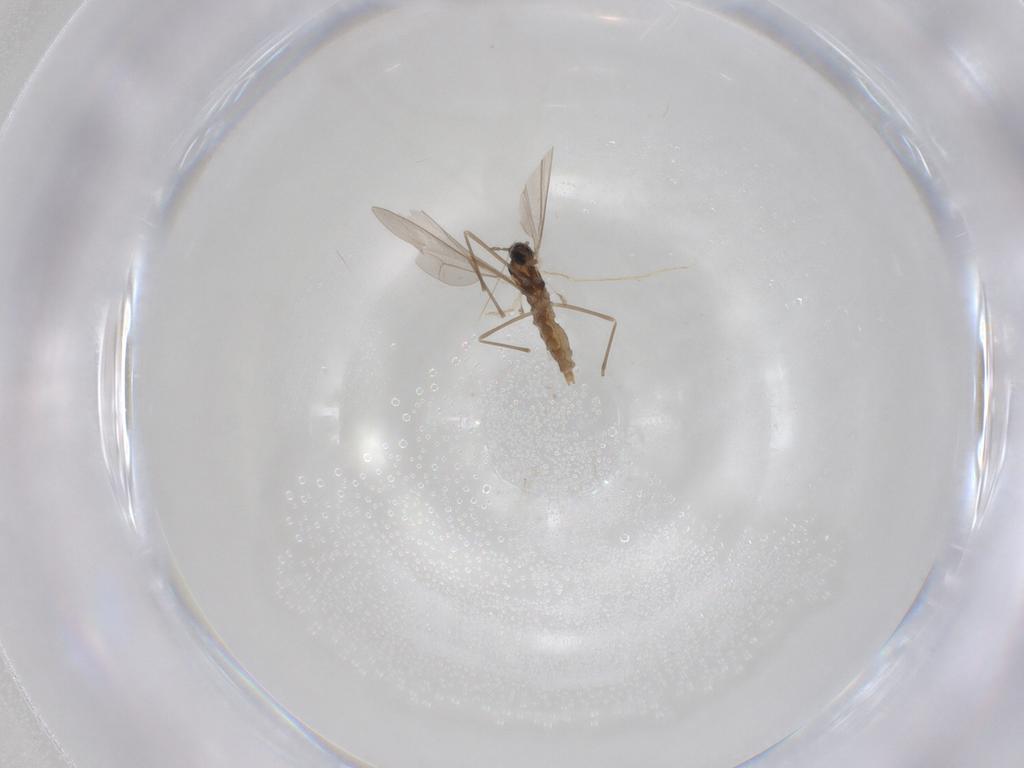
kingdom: Animalia
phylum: Arthropoda
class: Insecta
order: Diptera
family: Cecidomyiidae
